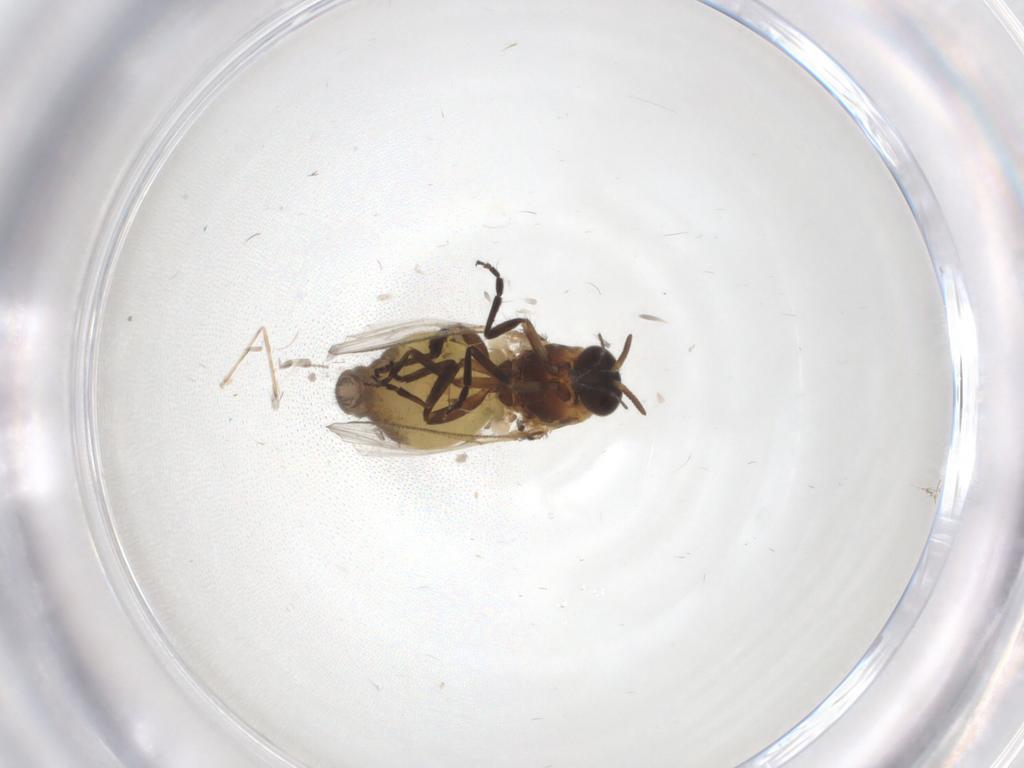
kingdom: Animalia
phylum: Arthropoda
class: Insecta
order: Diptera
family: Simuliidae
